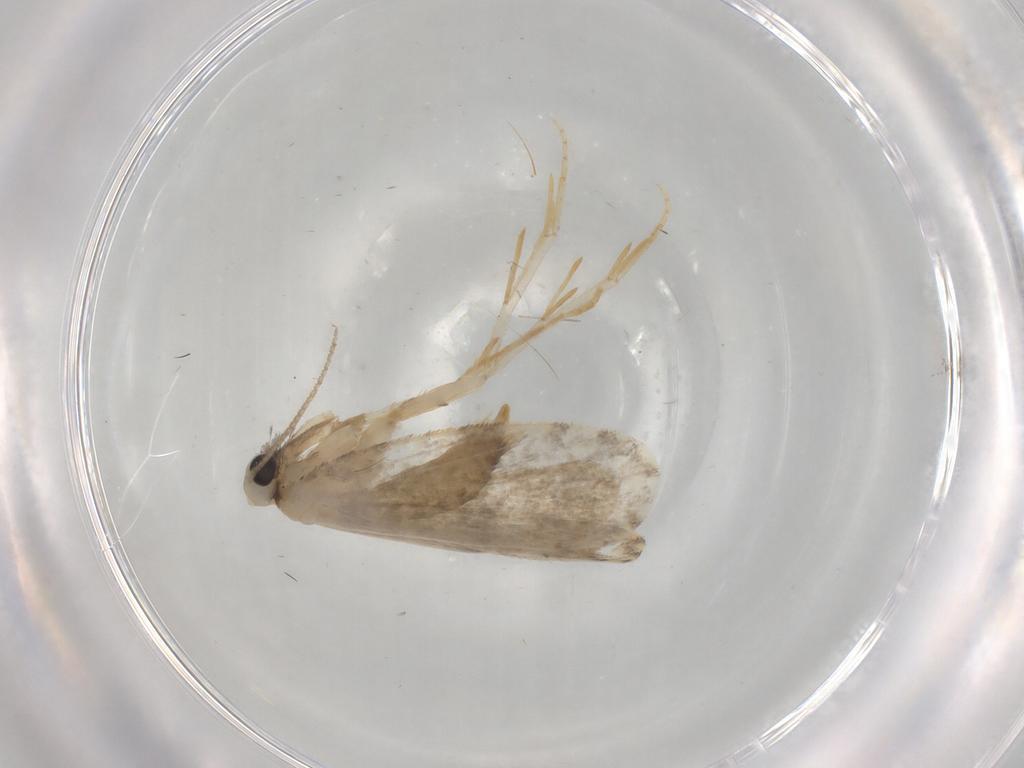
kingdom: Animalia
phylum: Arthropoda
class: Insecta
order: Lepidoptera
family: Psychidae
